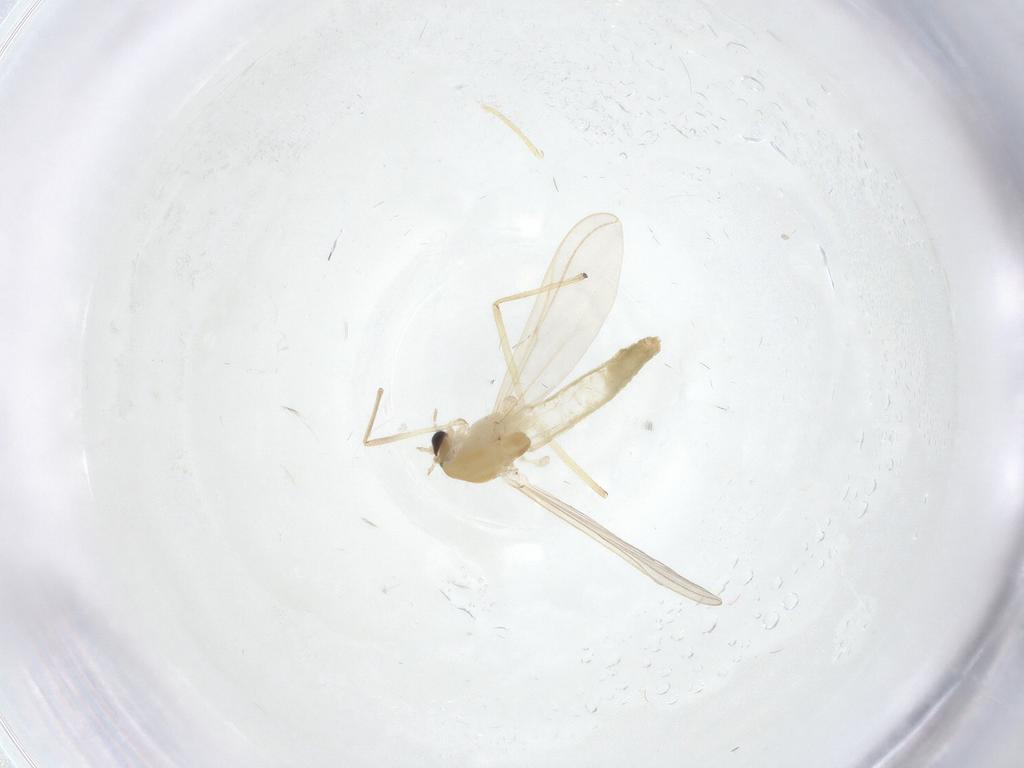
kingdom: Animalia
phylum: Arthropoda
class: Insecta
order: Diptera
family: Chironomidae
